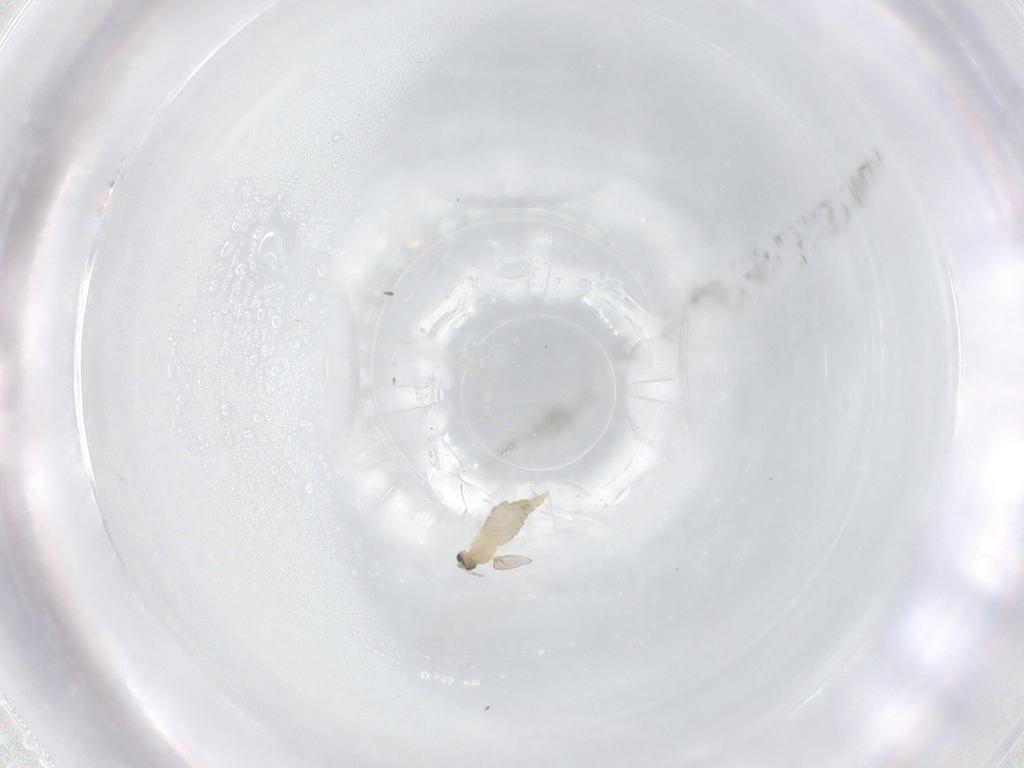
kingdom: Animalia
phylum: Arthropoda
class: Insecta
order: Diptera
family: Cecidomyiidae
